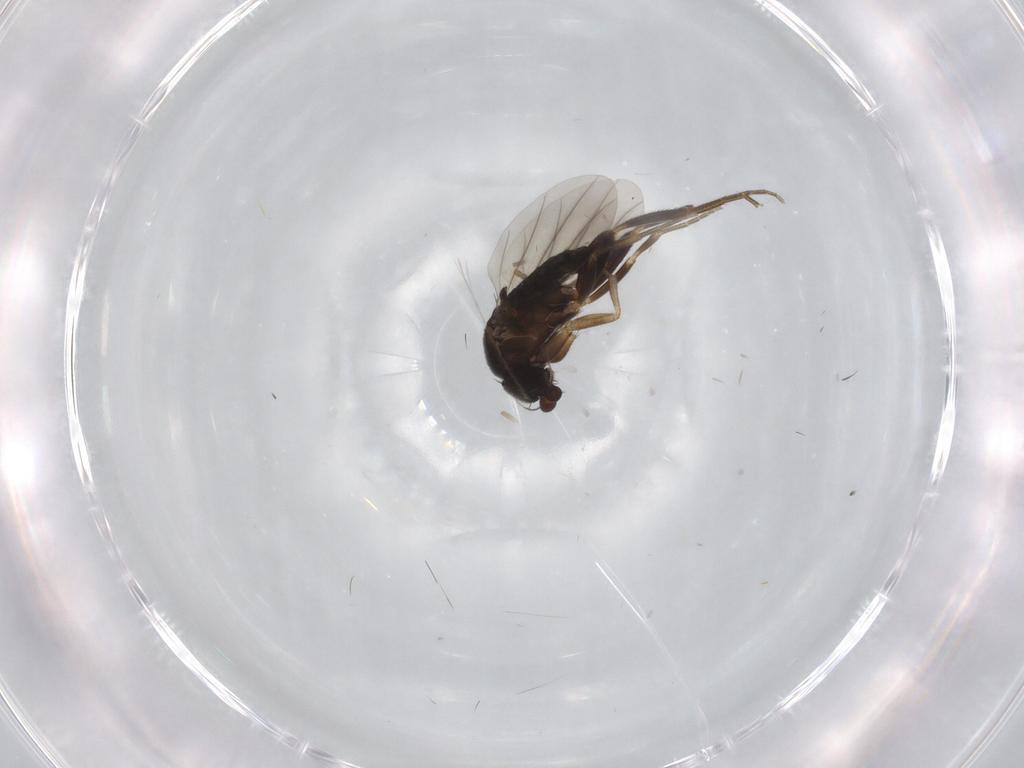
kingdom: Animalia
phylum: Arthropoda
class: Insecta
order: Diptera
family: Keroplatidae
